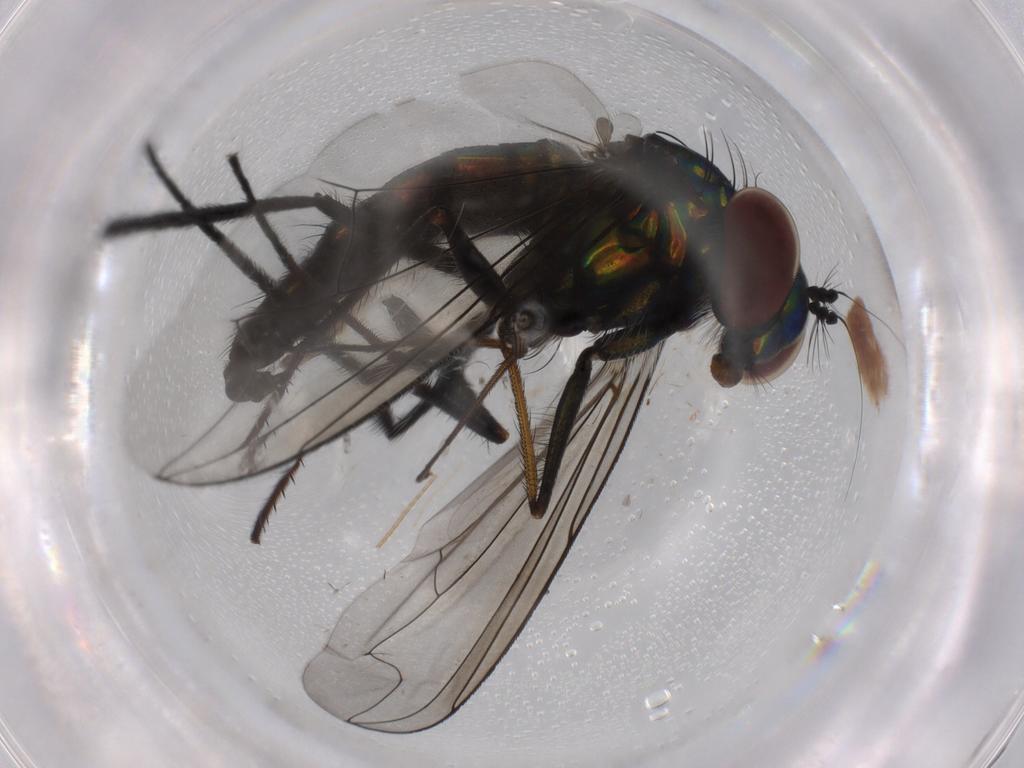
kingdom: Animalia
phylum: Arthropoda
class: Insecta
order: Diptera
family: Dolichopodidae
